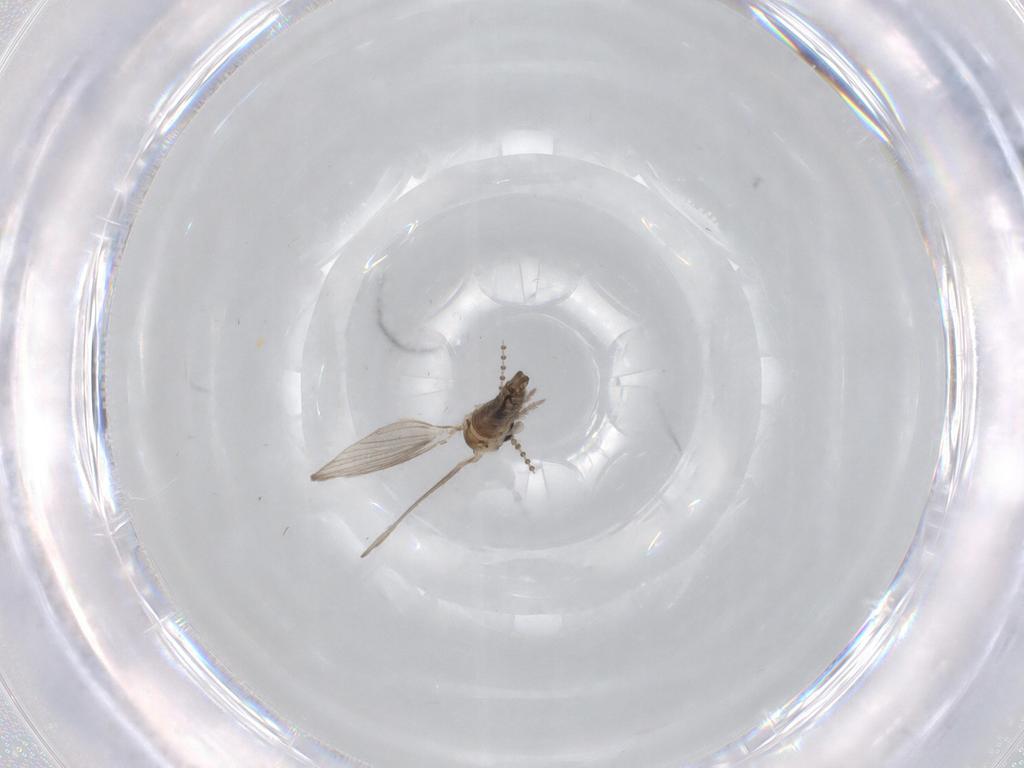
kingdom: Animalia
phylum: Arthropoda
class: Insecta
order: Diptera
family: Psychodidae
